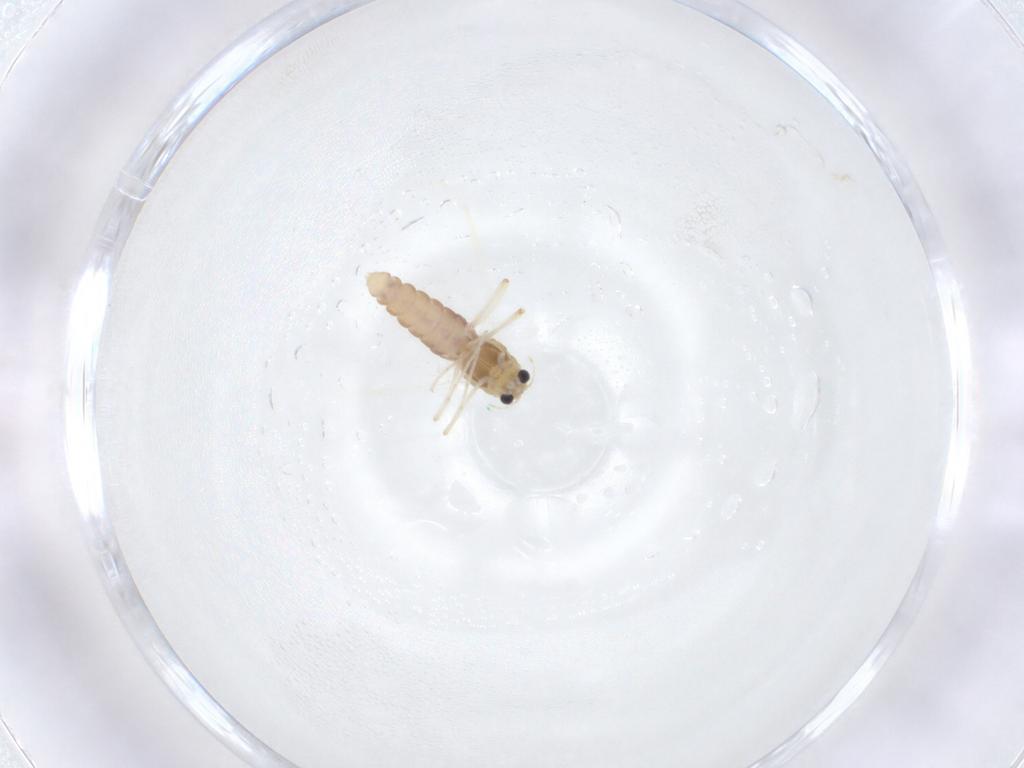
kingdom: Animalia
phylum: Arthropoda
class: Insecta
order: Diptera
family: Chironomidae
